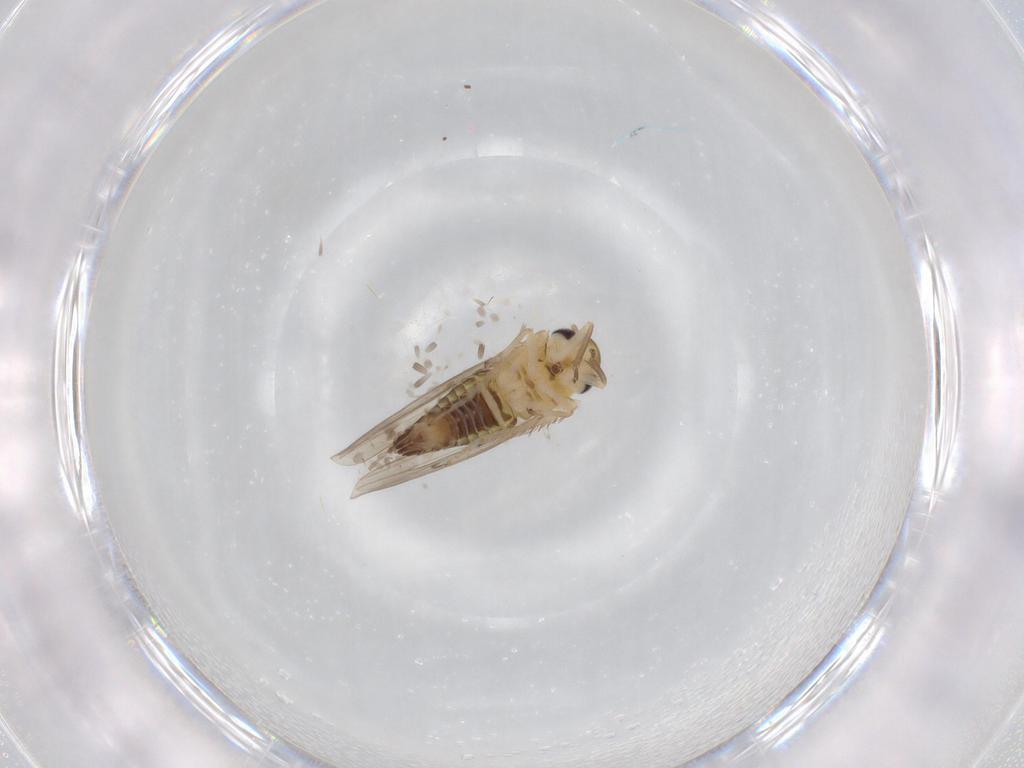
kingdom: Animalia
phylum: Arthropoda
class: Insecta
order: Hemiptera
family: Cicadellidae
